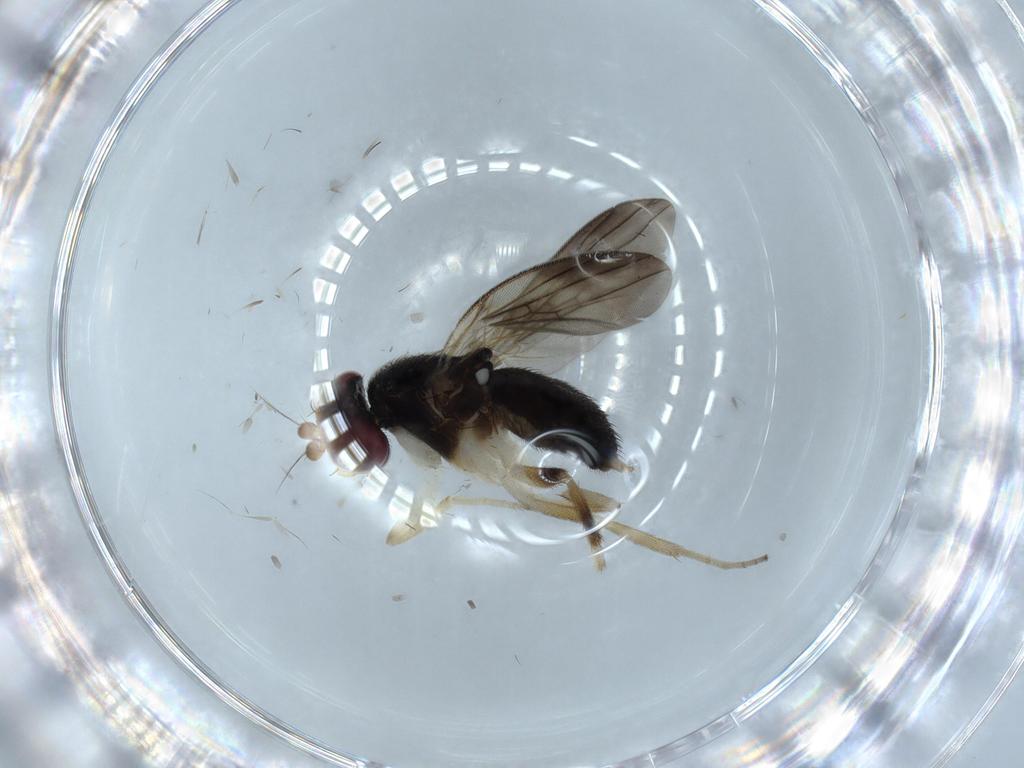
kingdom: Animalia
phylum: Arthropoda
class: Insecta
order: Diptera
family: Clusiidae
